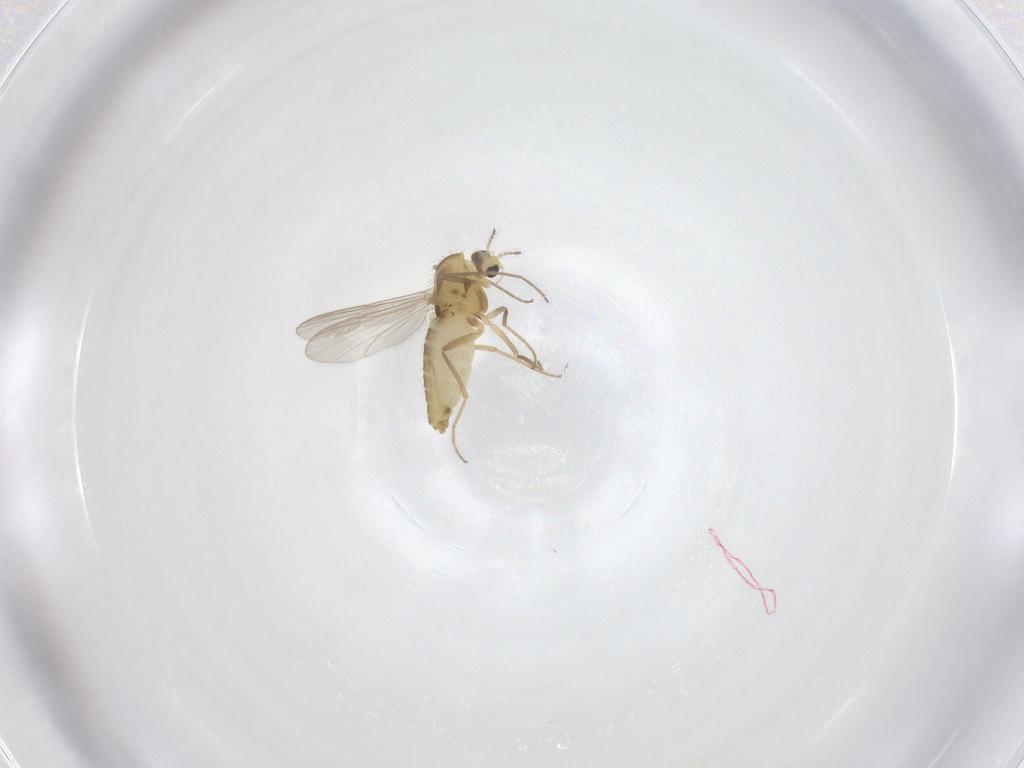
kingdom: Animalia
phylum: Arthropoda
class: Insecta
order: Diptera
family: Chironomidae
